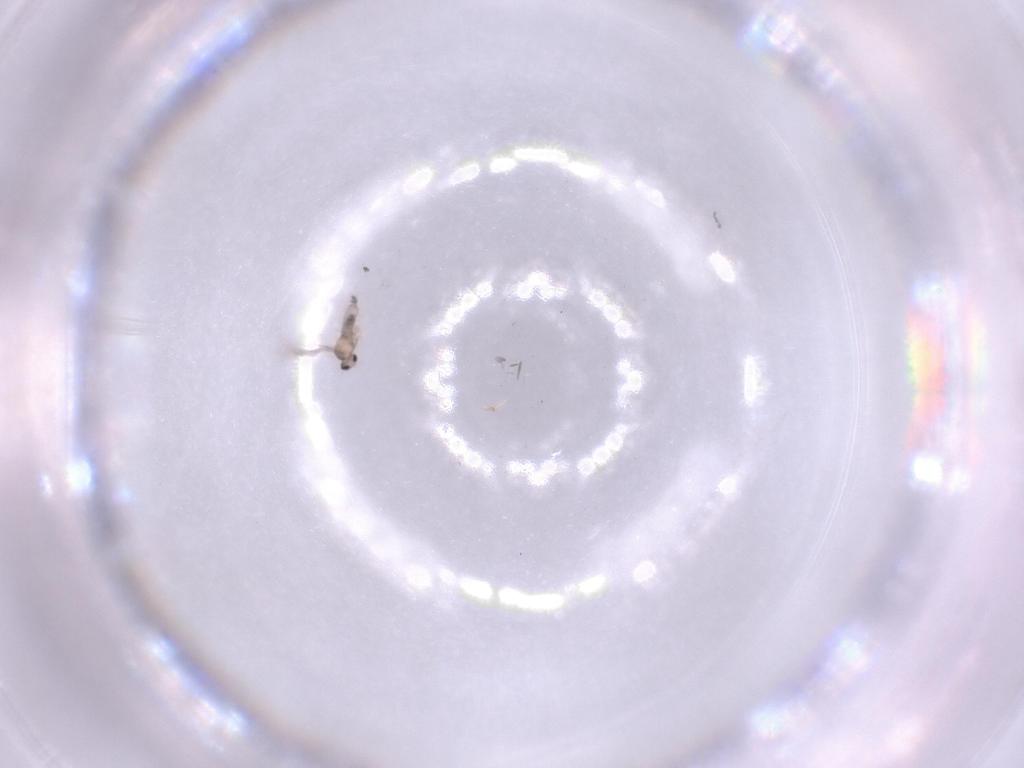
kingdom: Animalia
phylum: Arthropoda
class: Insecta
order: Diptera
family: Cecidomyiidae
